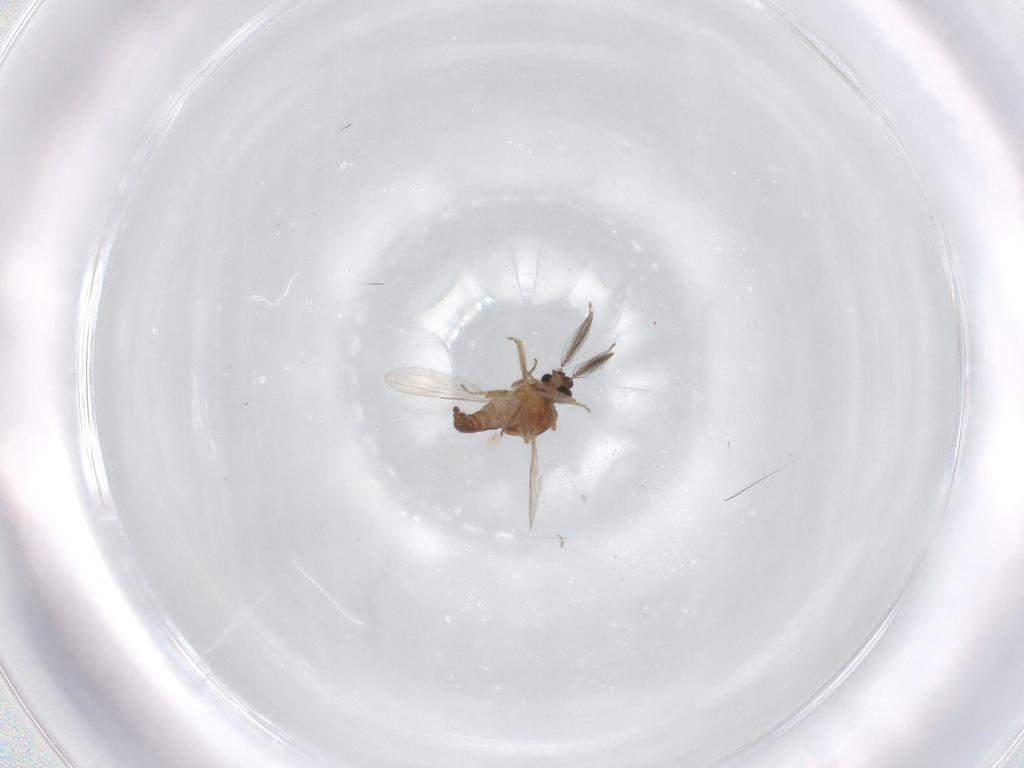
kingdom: Animalia
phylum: Arthropoda
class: Insecta
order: Diptera
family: Ceratopogonidae
